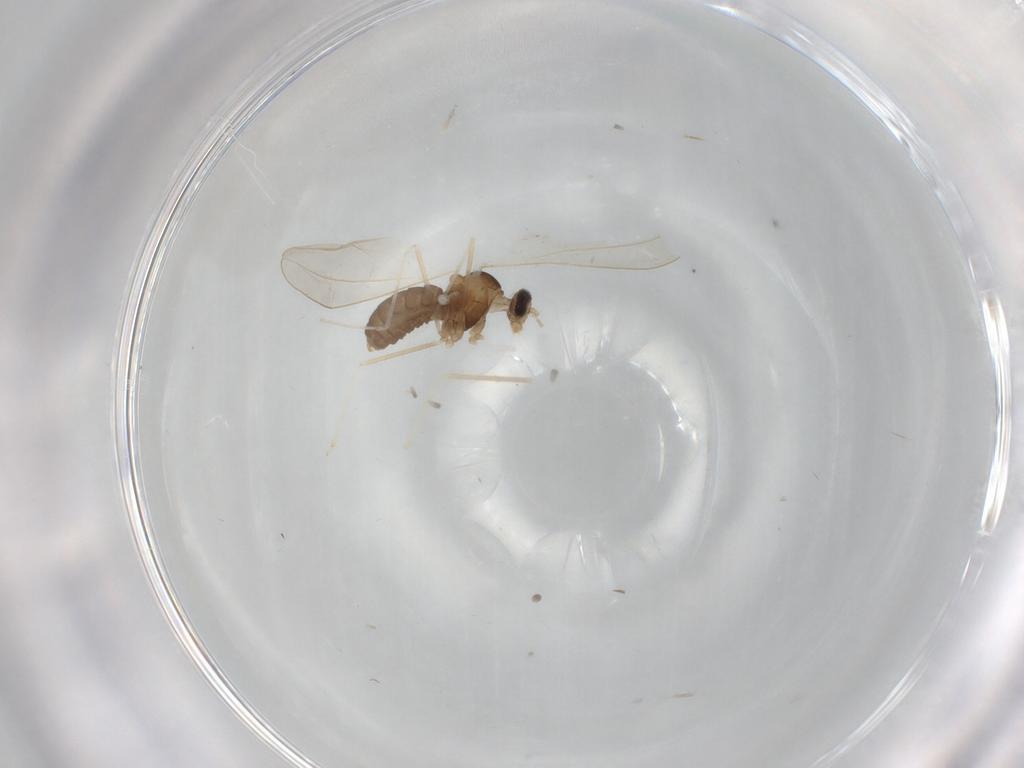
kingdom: Animalia
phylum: Arthropoda
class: Insecta
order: Diptera
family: Cecidomyiidae
